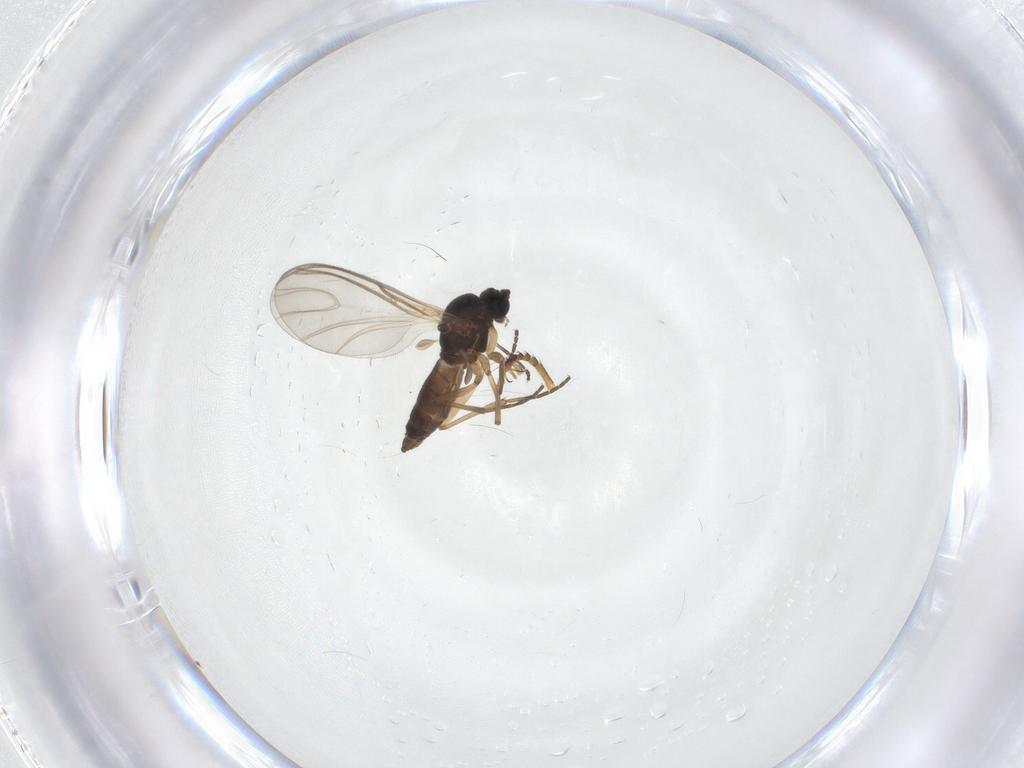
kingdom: Animalia
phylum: Arthropoda
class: Insecta
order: Diptera
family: Pipunculidae
